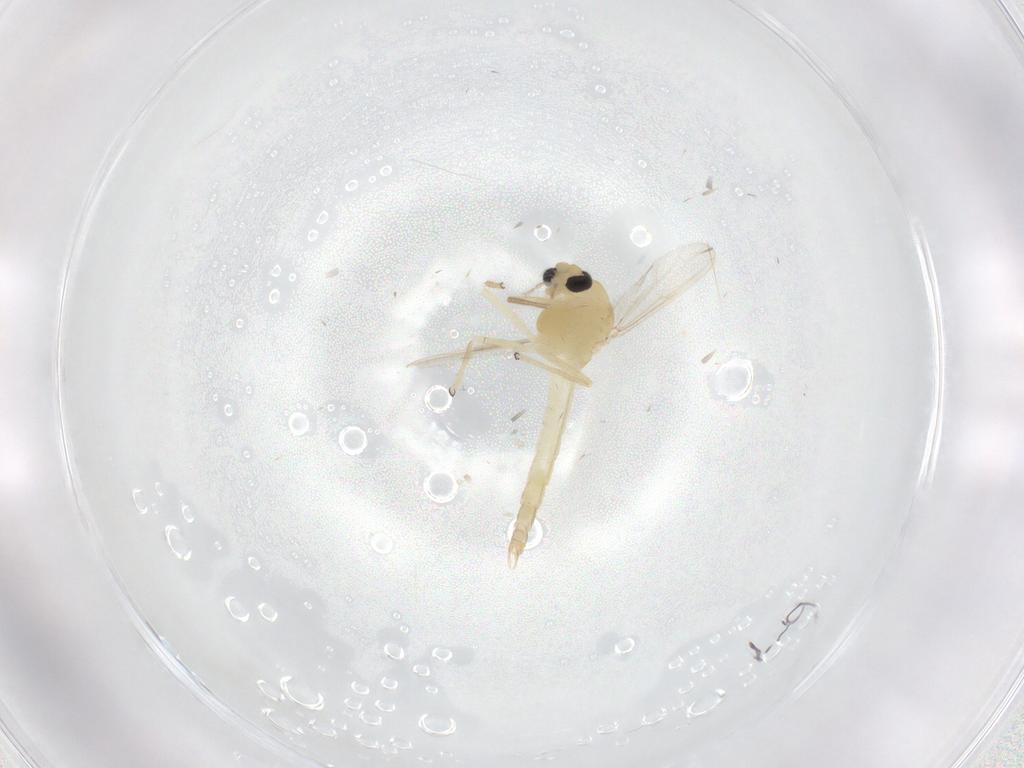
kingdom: Animalia
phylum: Arthropoda
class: Insecta
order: Diptera
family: Chironomidae
